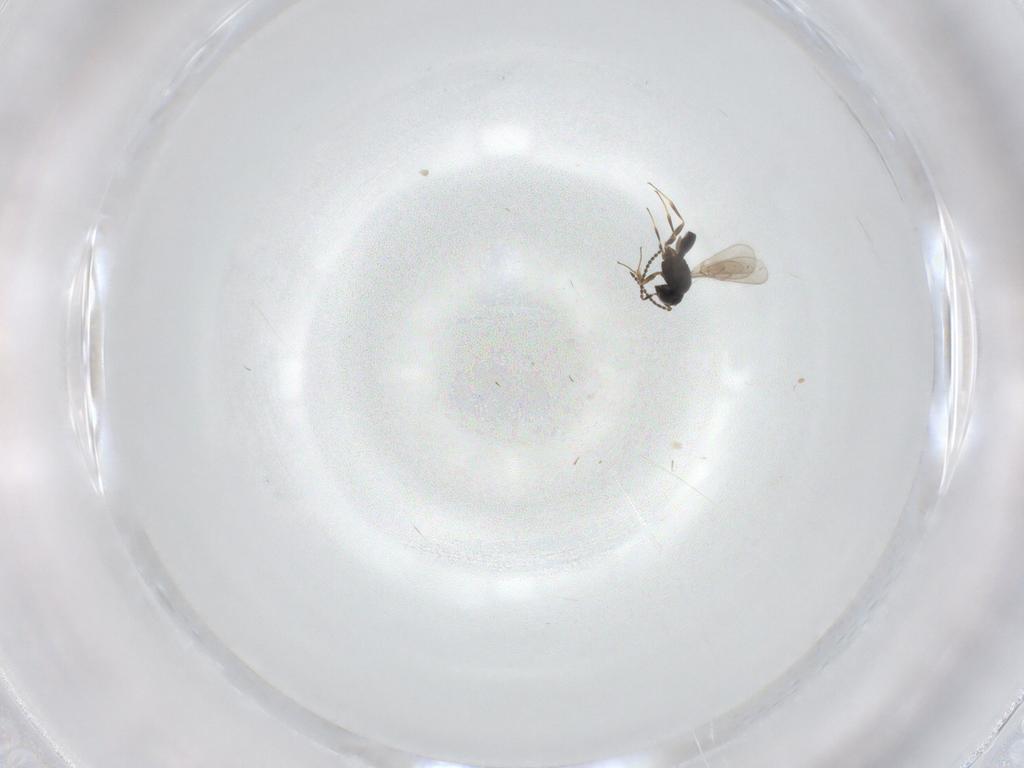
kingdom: Animalia
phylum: Arthropoda
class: Insecta
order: Hymenoptera
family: Scelionidae
